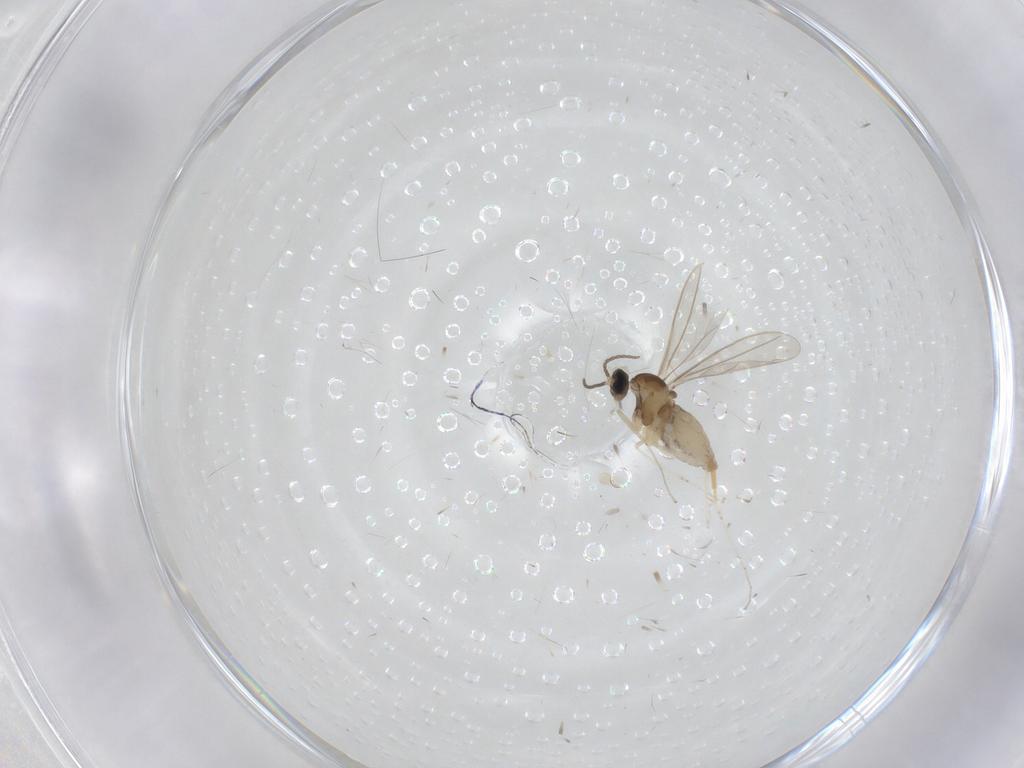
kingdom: Animalia
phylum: Arthropoda
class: Insecta
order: Diptera
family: Cecidomyiidae
